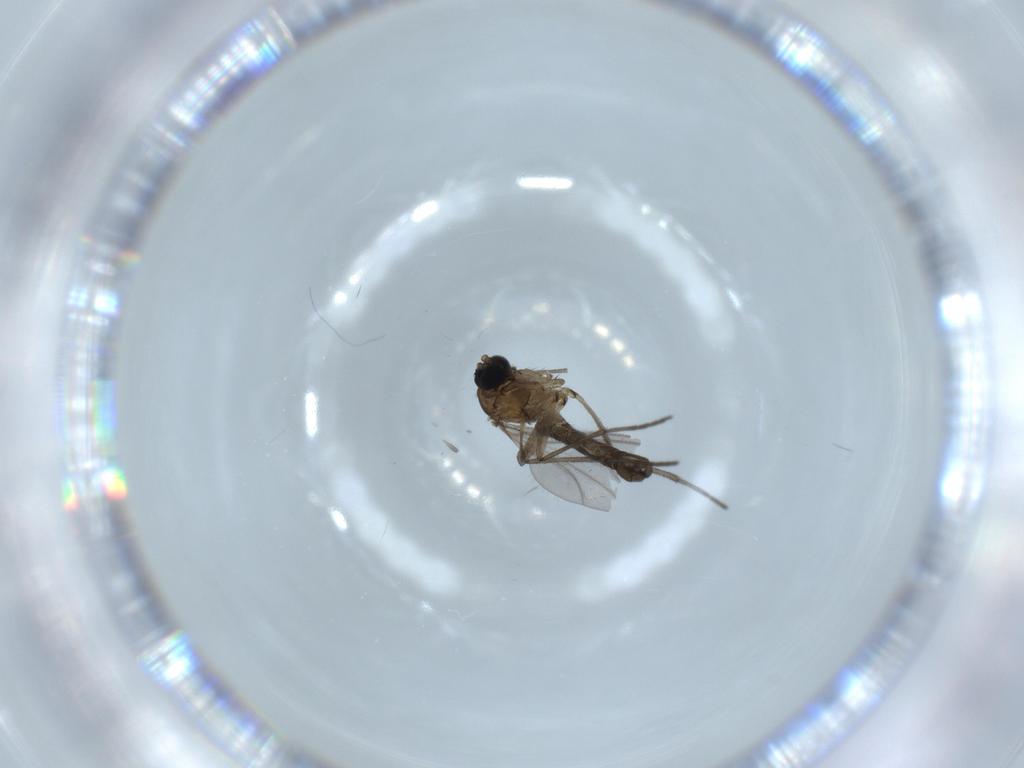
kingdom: Animalia
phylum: Arthropoda
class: Insecta
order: Diptera
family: Sciaridae
